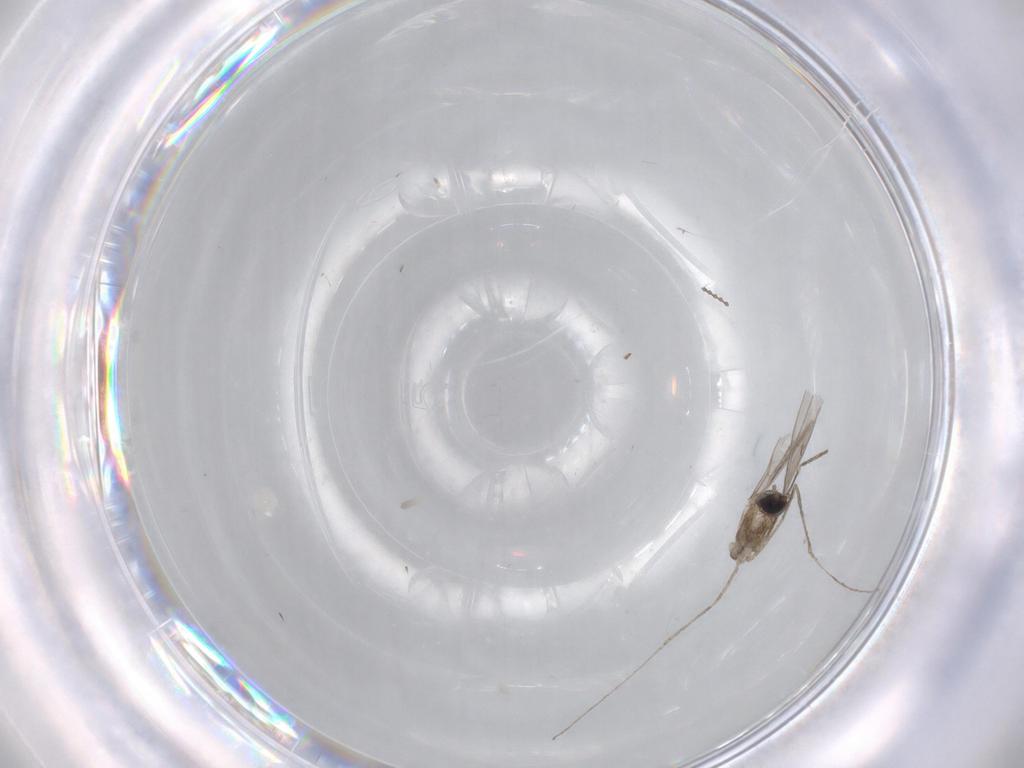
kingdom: Animalia
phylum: Arthropoda
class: Insecta
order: Diptera
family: Cecidomyiidae
